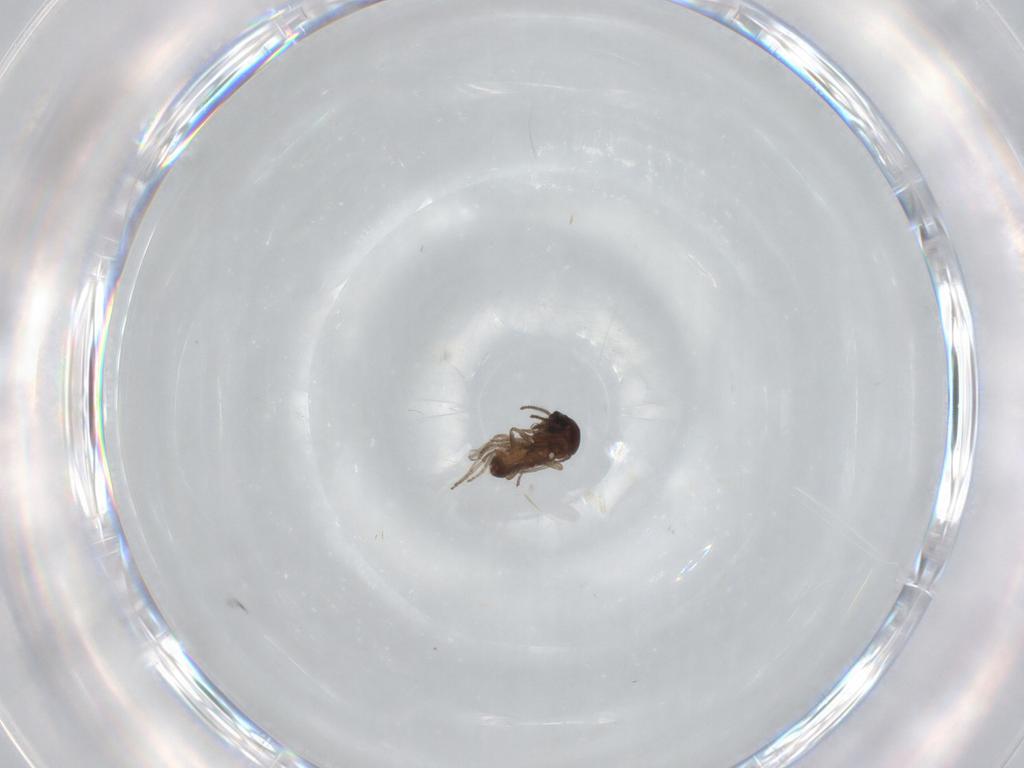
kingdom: Animalia
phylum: Arthropoda
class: Insecta
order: Diptera
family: Ceratopogonidae
